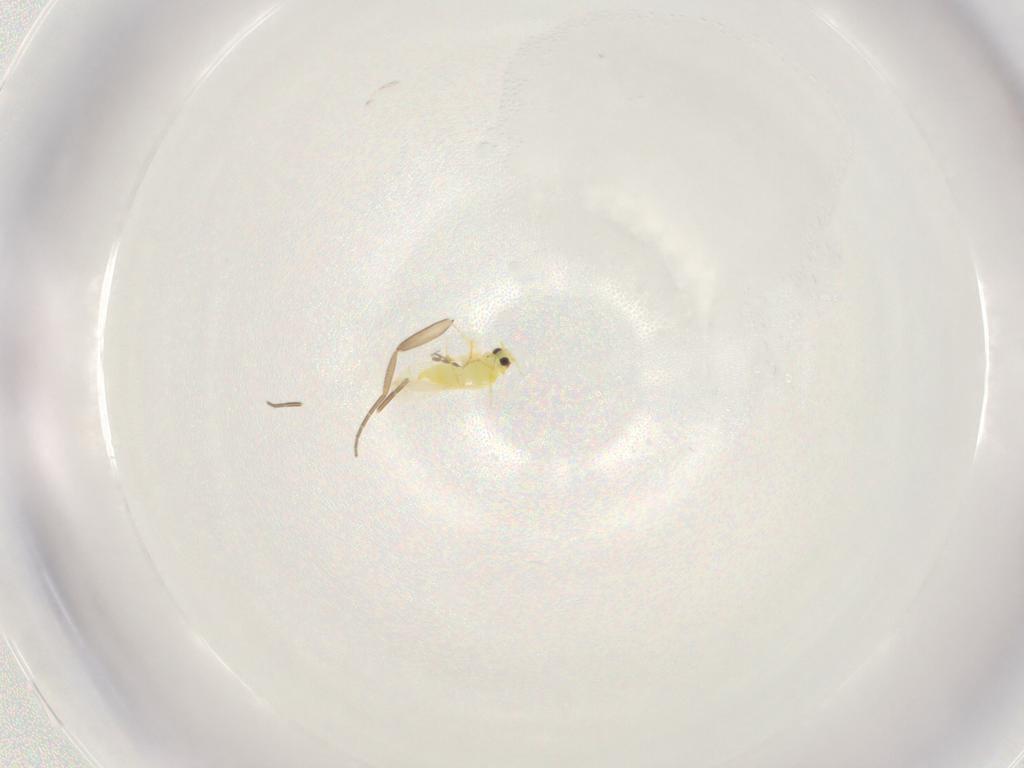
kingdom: Animalia
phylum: Arthropoda
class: Insecta
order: Diptera
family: Phoridae
